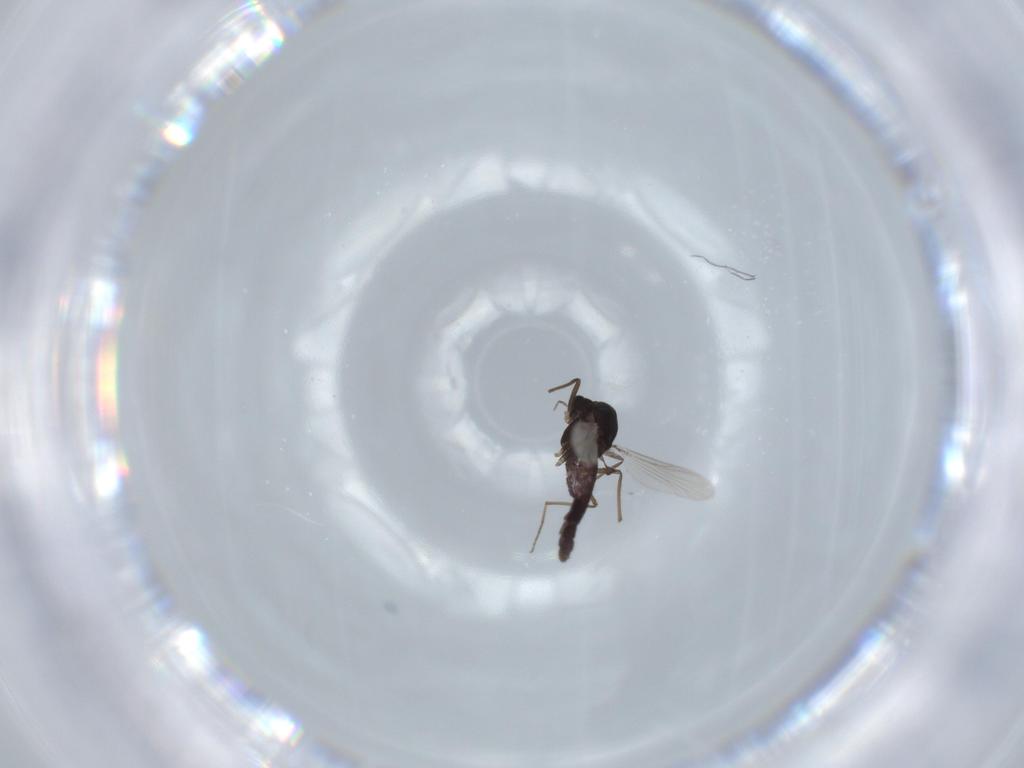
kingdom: Animalia
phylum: Arthropoda
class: Insecta
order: Diptera
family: Chironomidae
